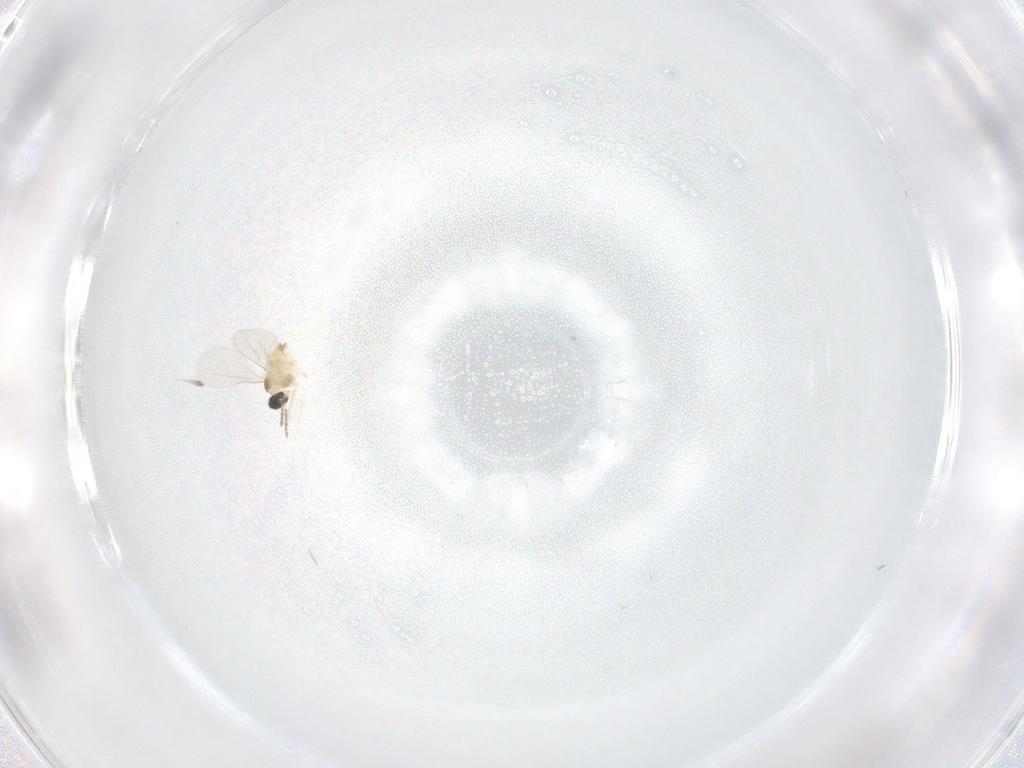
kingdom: Animalia
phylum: Arthropoda
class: Insecta
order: Diptera
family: Cecidomyiidae
